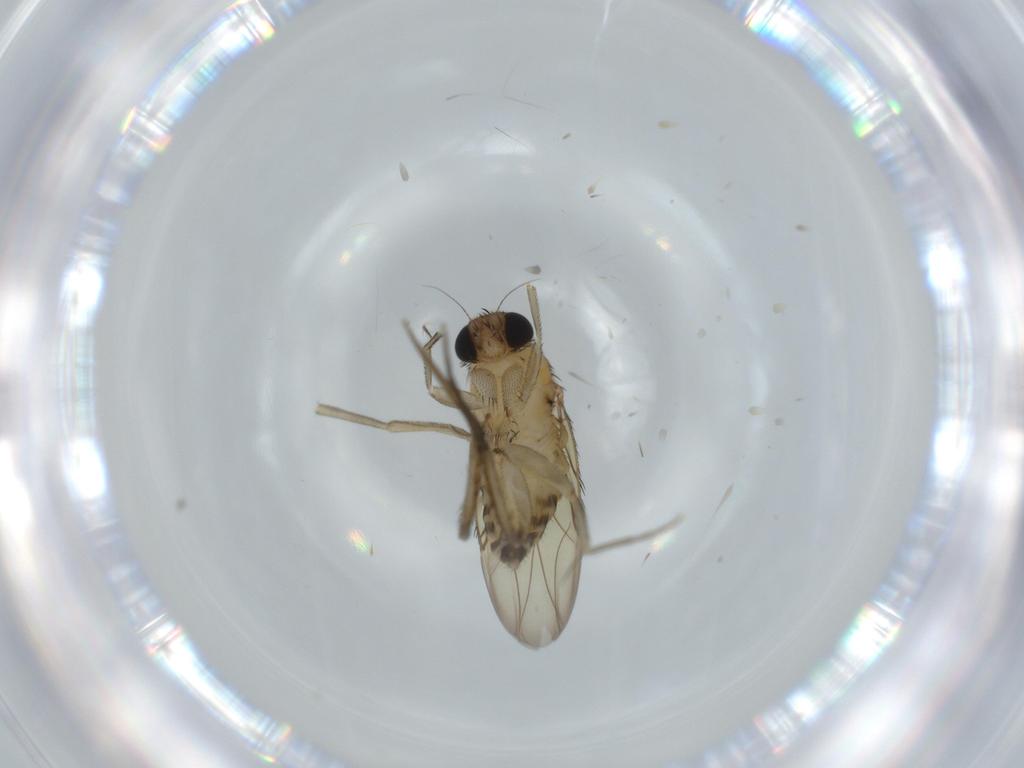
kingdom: Animalia
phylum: Arthropoda
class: Insecta
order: Diptera
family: Phoridae
